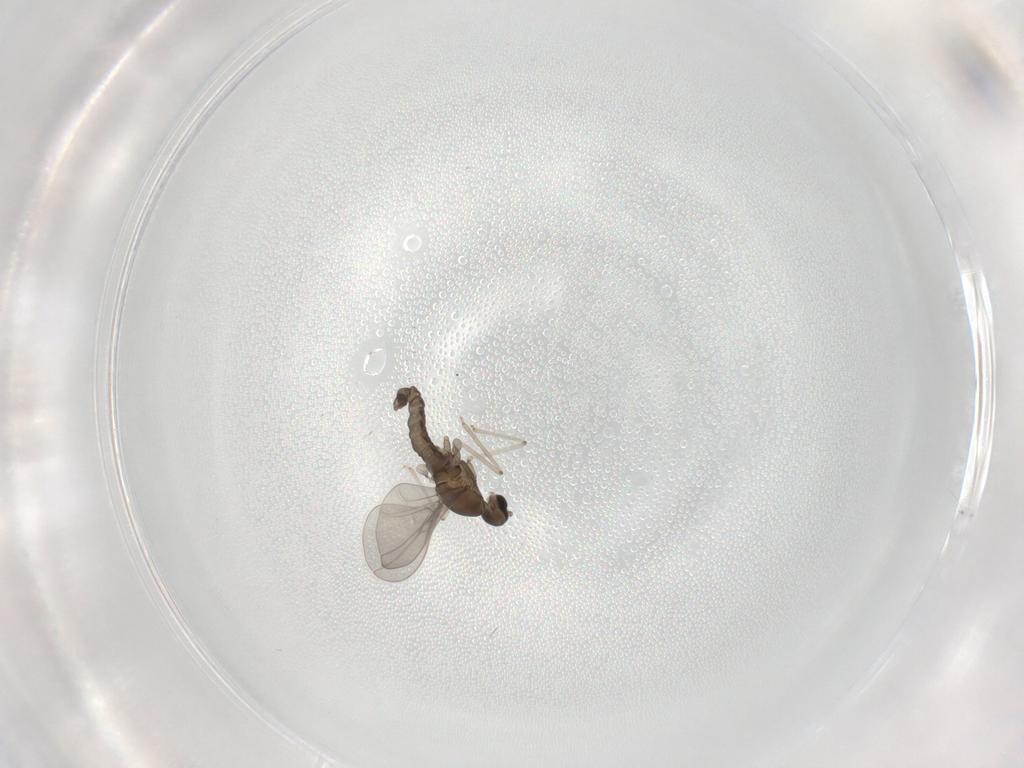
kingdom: Animalia
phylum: Arthropoda
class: Insecta
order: Diptera
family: Cecidomyiidae
